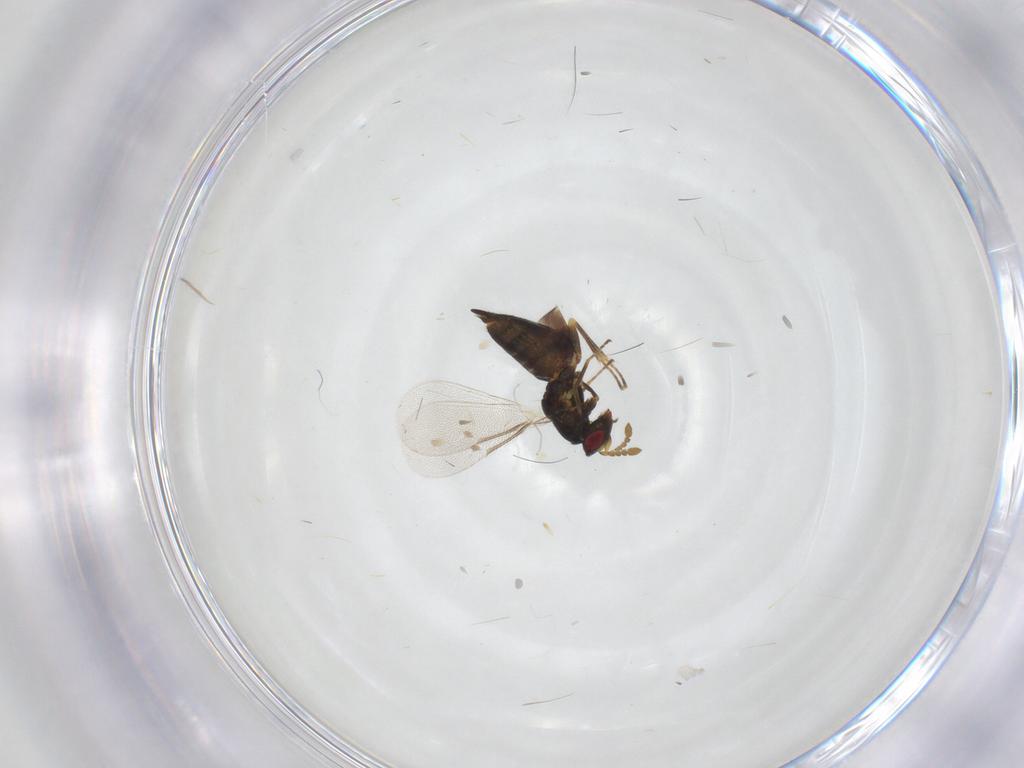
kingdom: Animalia
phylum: Arthropoda
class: Insecta
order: Hymenoptera
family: Eulophidae
